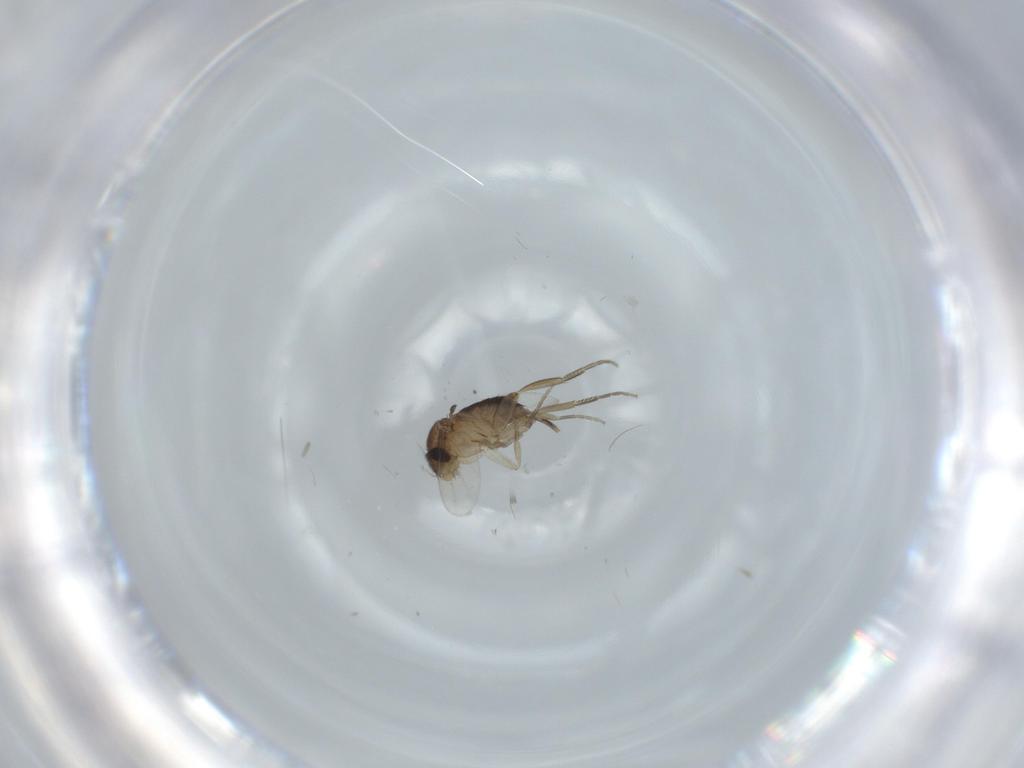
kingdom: Animalia
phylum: Arthropoda
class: Insecta
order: Diptera
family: Phoridae
